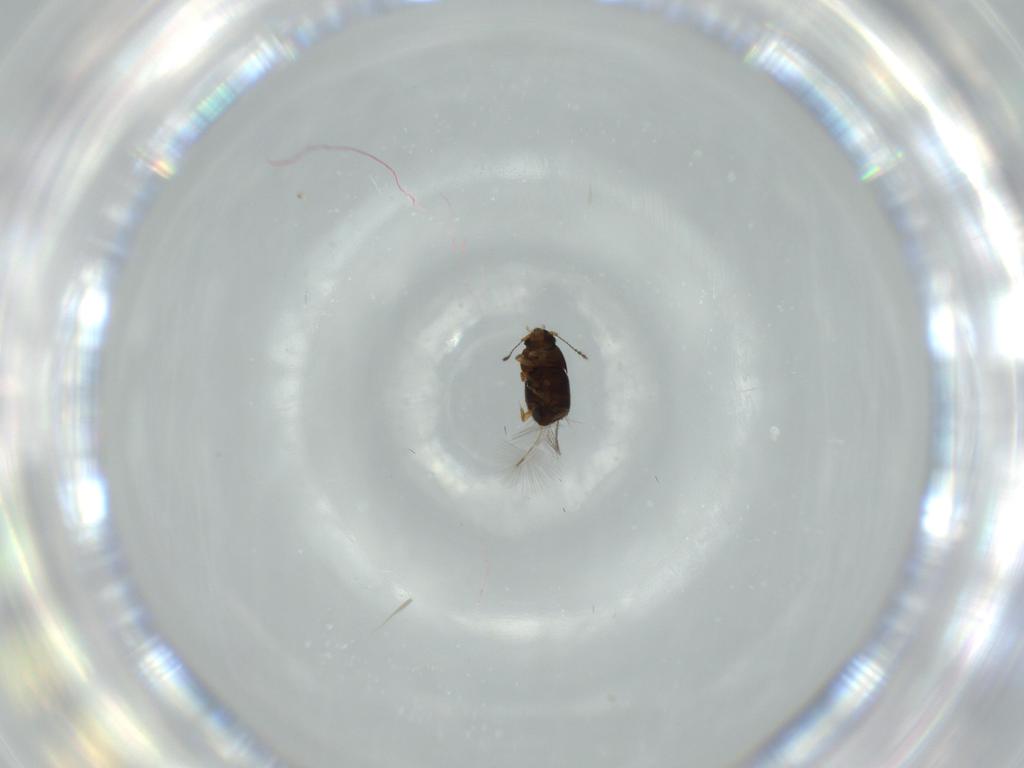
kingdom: Animalia
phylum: Arthropoda
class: Insecta
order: Coleoptera
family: Ptiliidae
